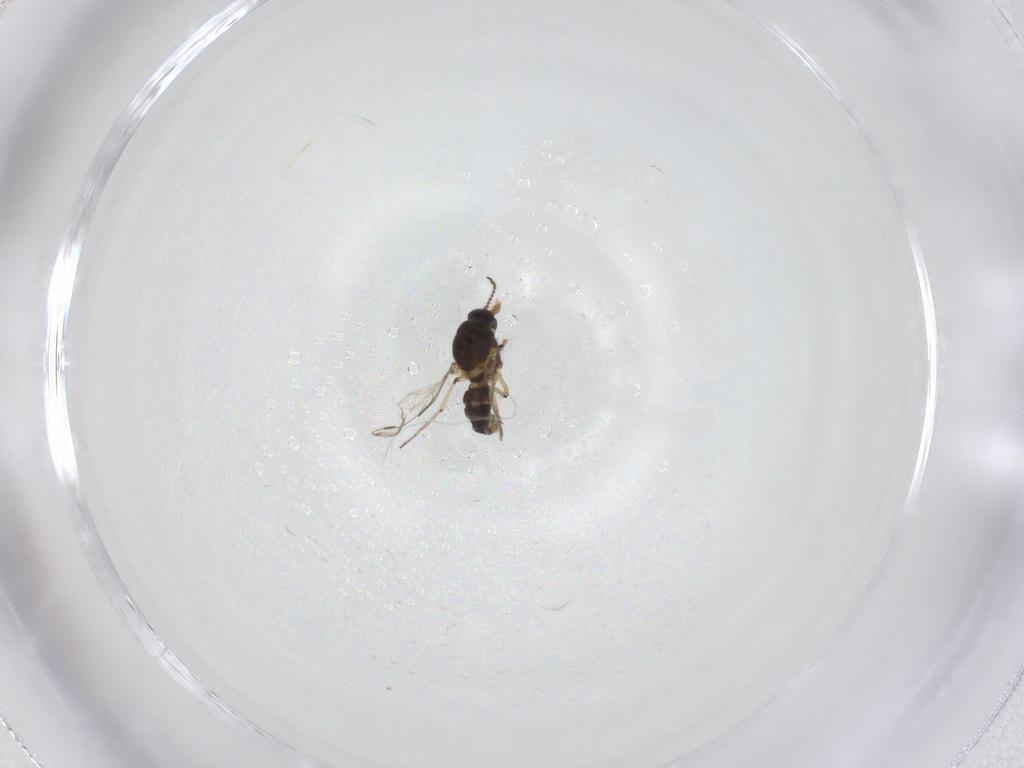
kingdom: Animalia
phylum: Arthropoda
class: Insecta
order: Diptera
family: Ceratopogonidae
